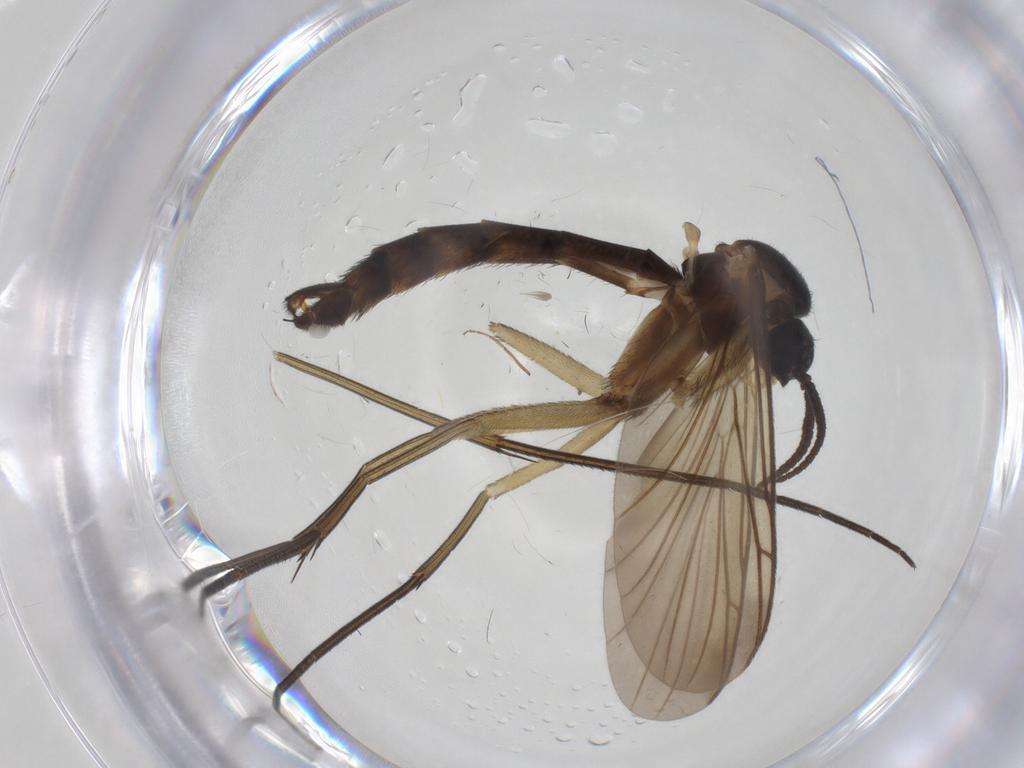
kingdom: Animalia
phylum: Arthropoda
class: Insecta
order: Diptera
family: Keroplatidae
